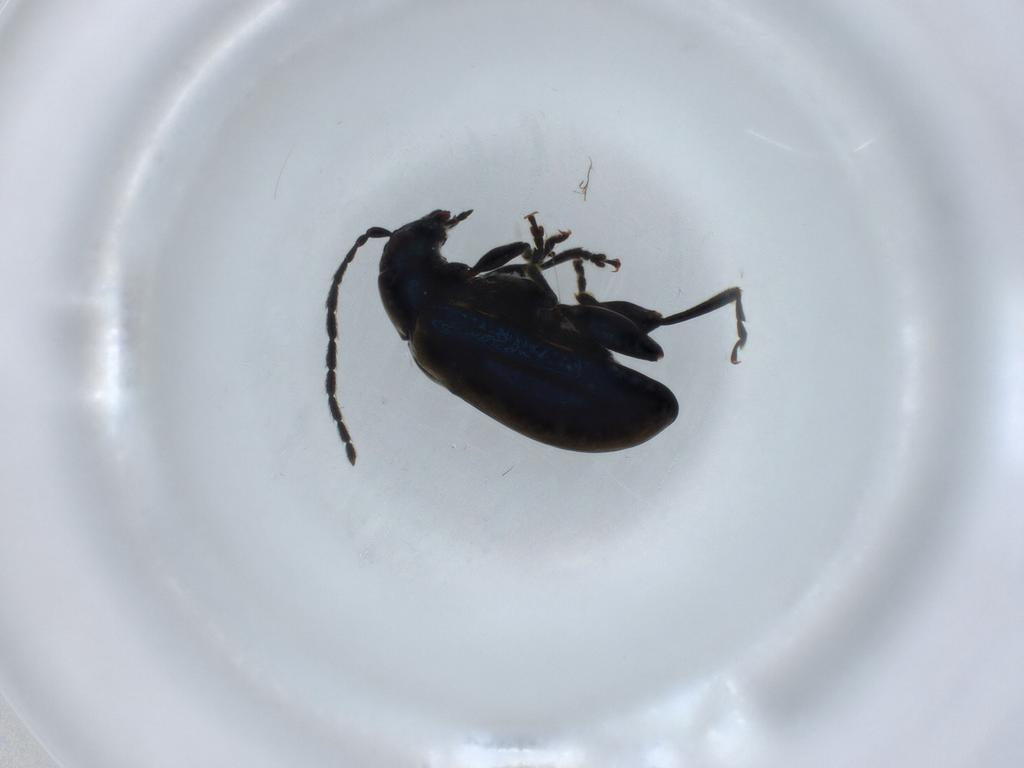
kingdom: Animalia
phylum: Arthropoda
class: Insecta
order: Coleoptera
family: Chrysomelidae
